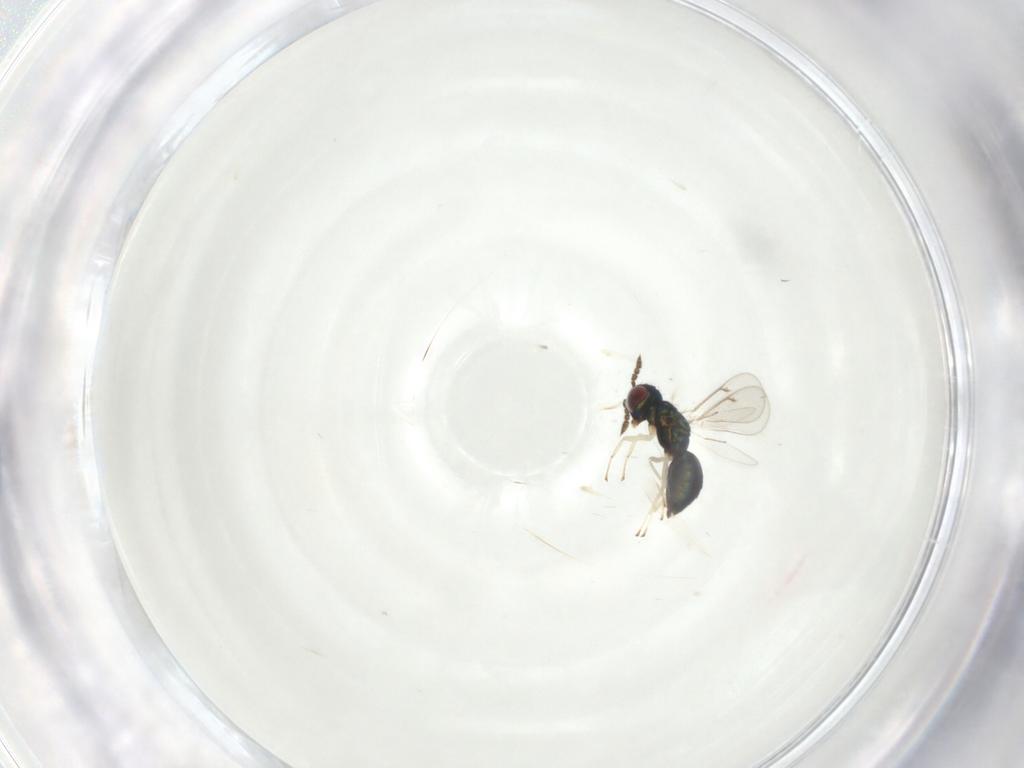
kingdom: Animalia
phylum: Arthropoda
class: Insecta
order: Hymenoptera
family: Eulophidae
